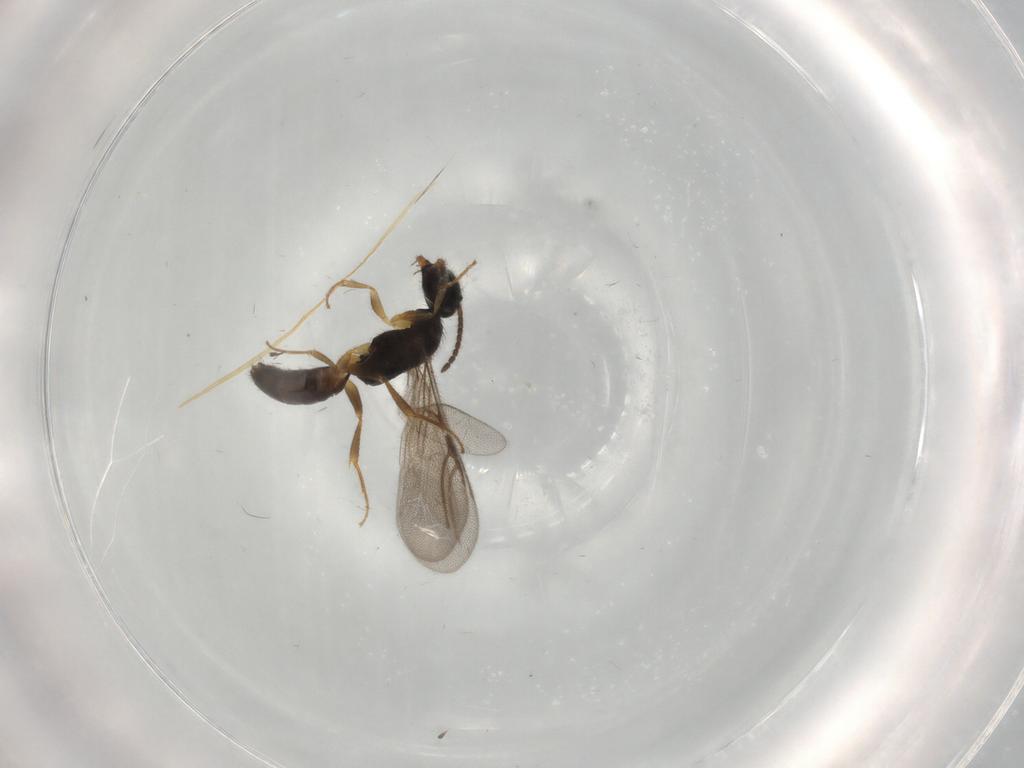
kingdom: Animalia
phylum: Arthropoda
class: Insecta
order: Hymenoptera
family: Bethylidae
